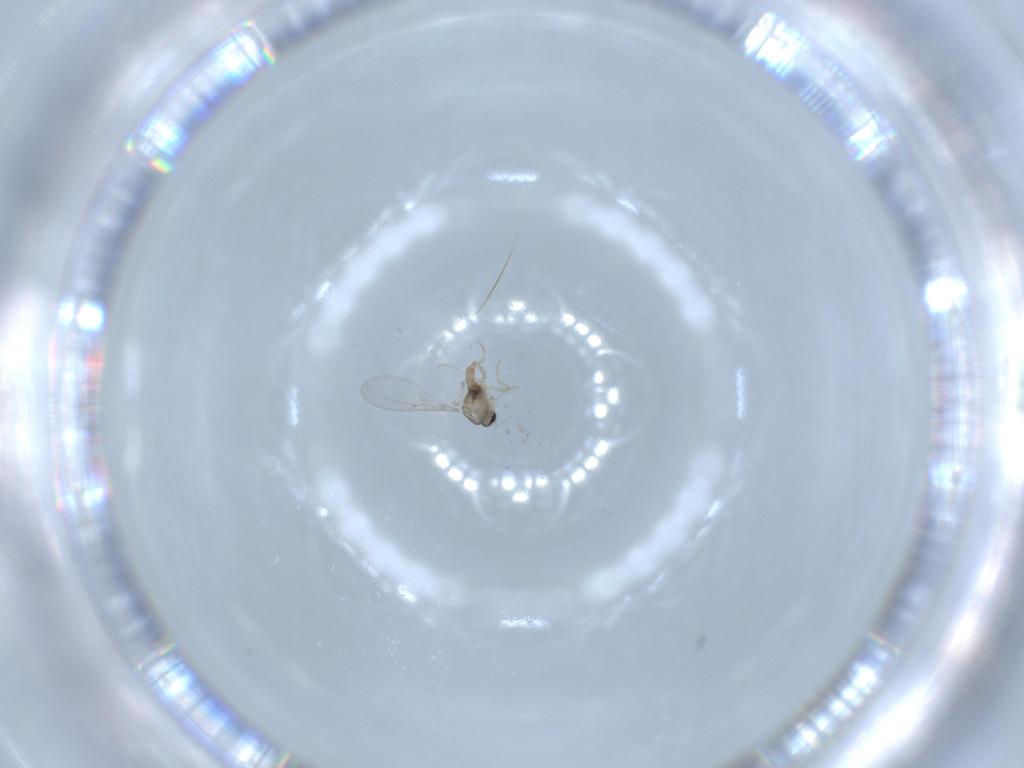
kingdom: Animalia
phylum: Arthropoda
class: Insecta
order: Diptera
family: Cecidomyiidae
